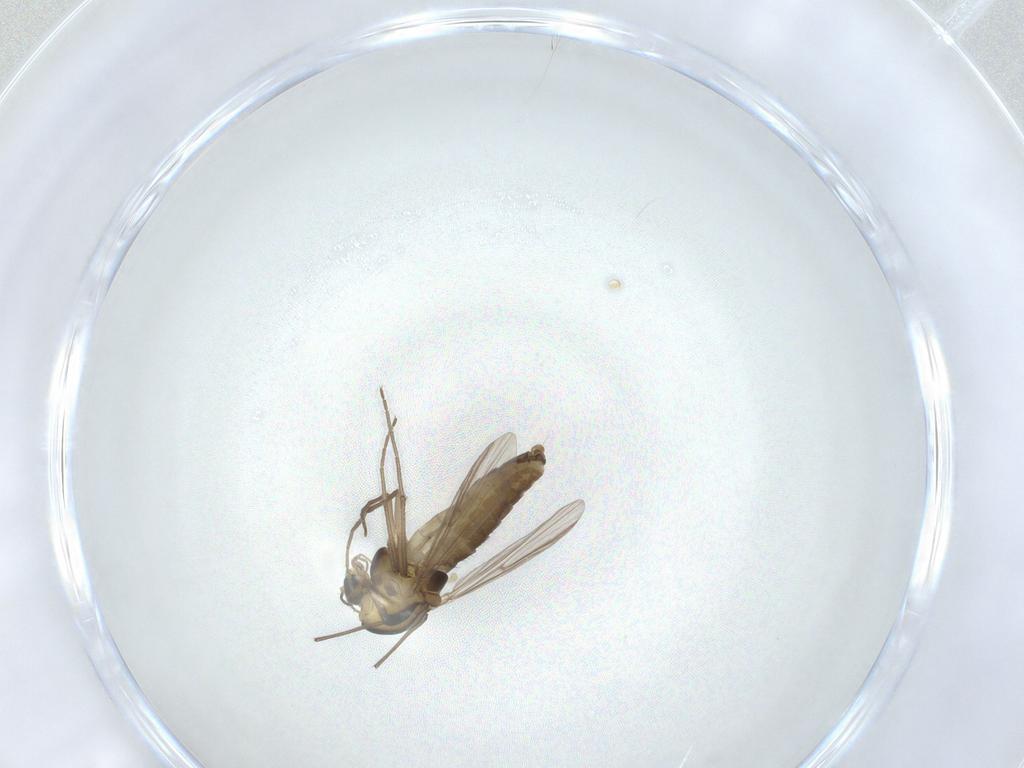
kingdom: Animalia
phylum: Arthropoda
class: Insecta
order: Diptera
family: Chironomidae
